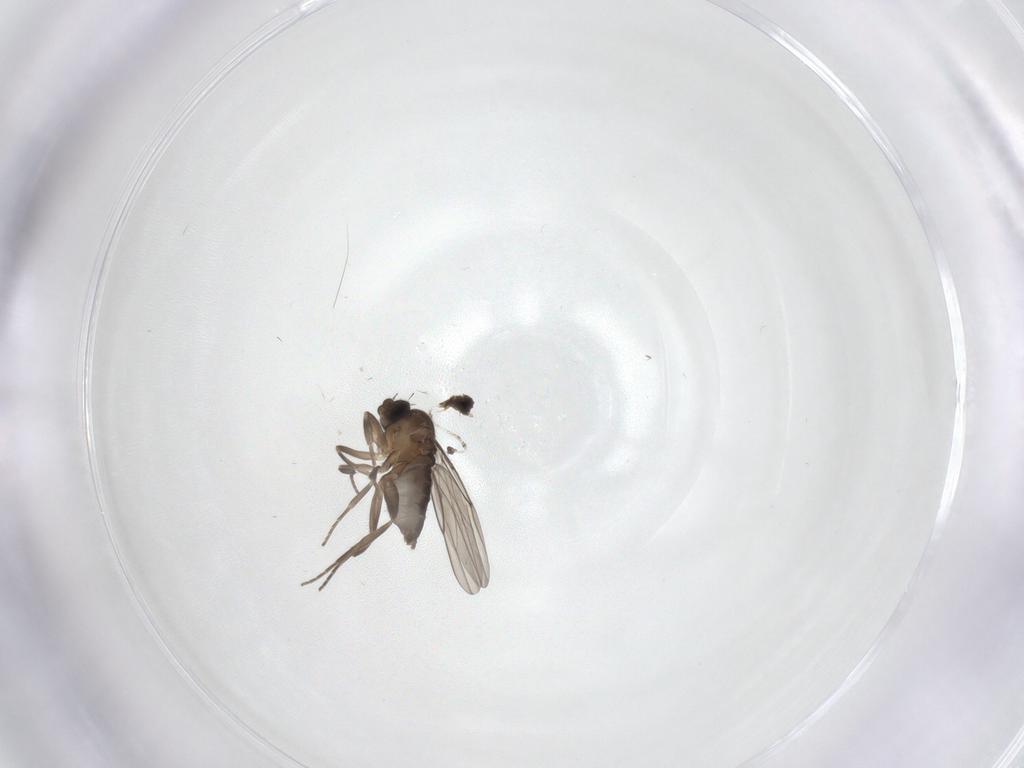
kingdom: Animalia
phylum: Arthropoda
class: Insecta
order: Diptera
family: Phoridae
